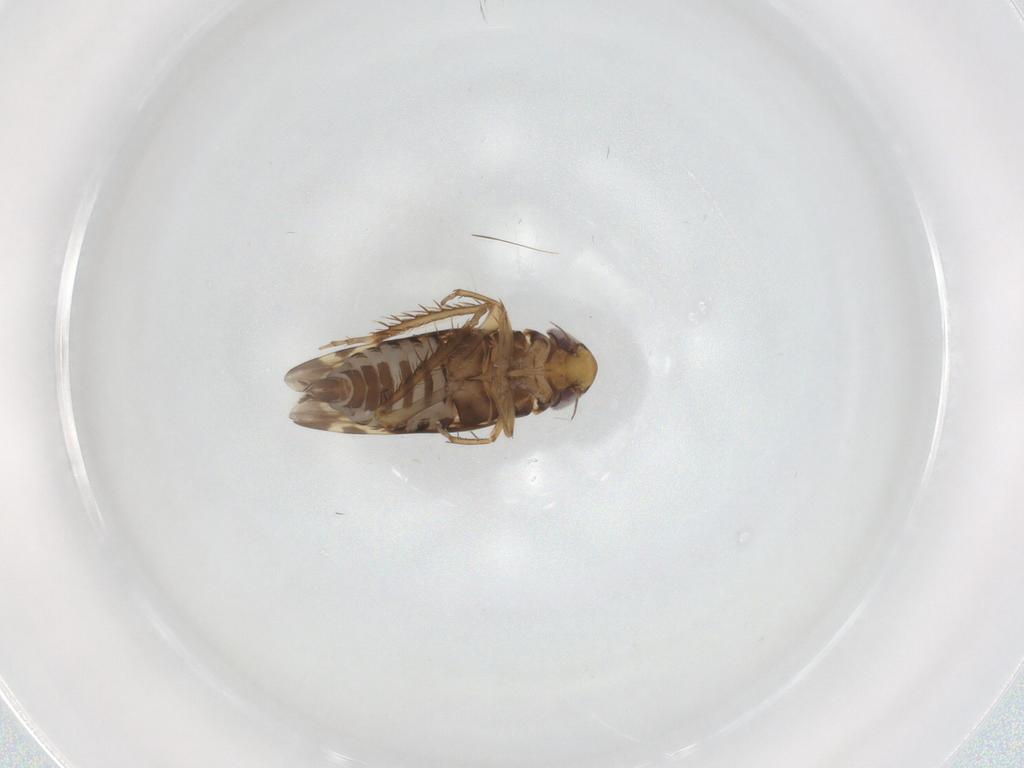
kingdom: Animalia
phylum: Arthropoda
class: Insecta
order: Hemiptera
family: Cicadellidae
